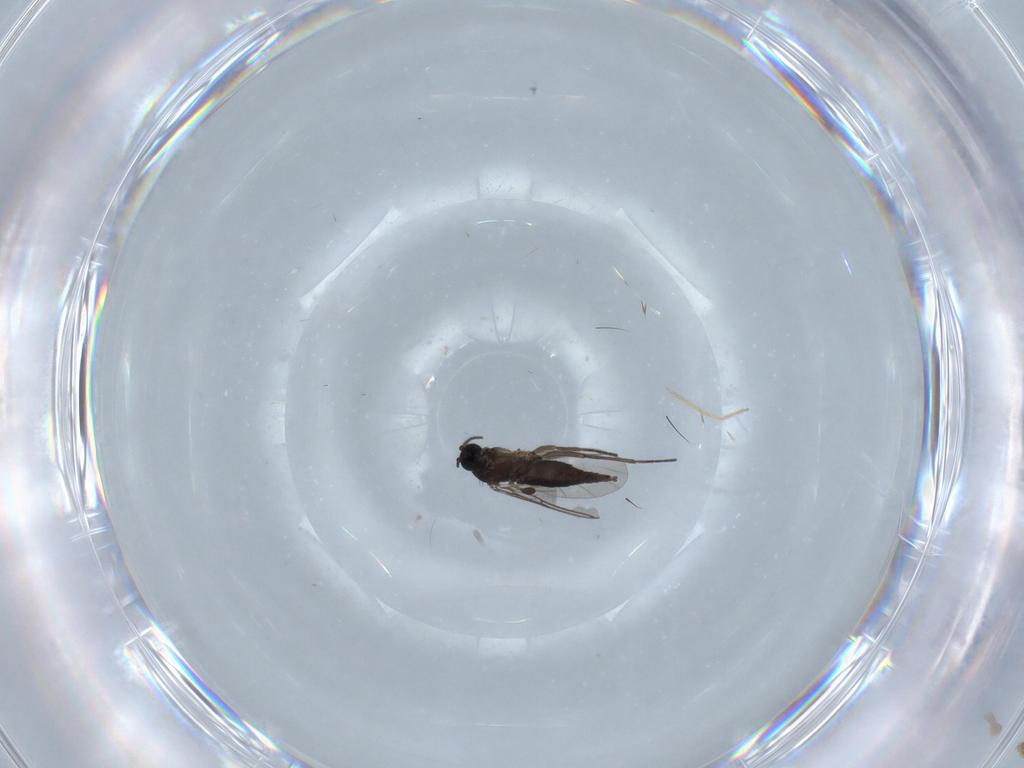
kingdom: Animalia
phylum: Arthropoda
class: Insecta
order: Diptera
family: Sciaridae
